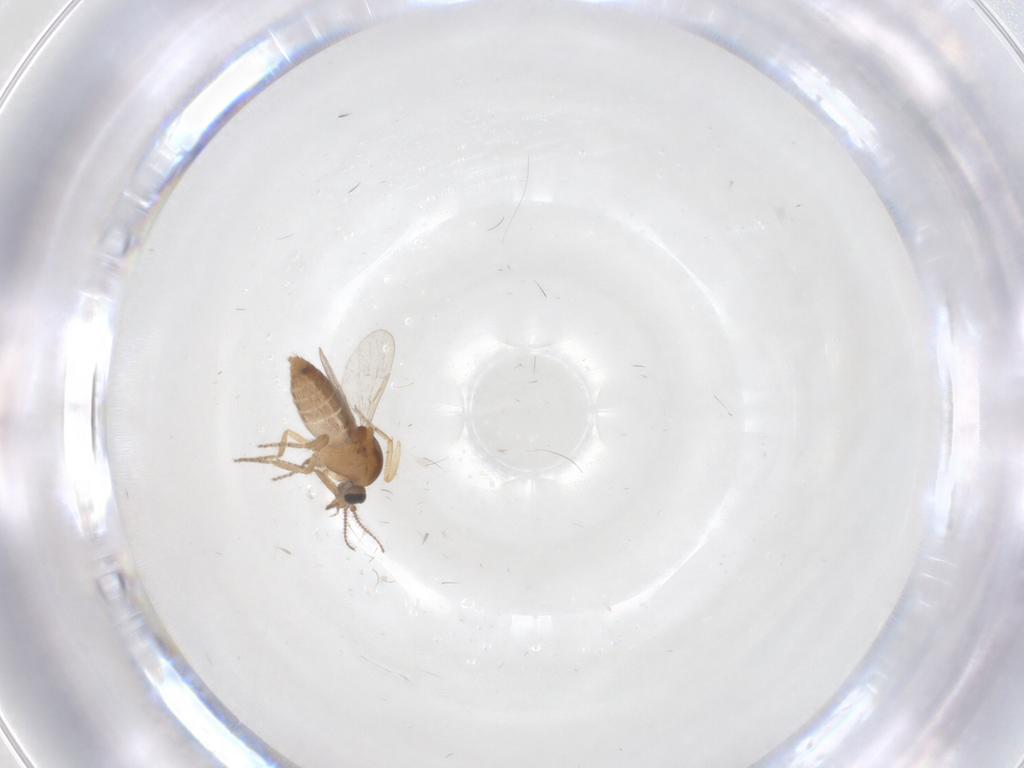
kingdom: Animalia
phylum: Arthropoda
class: Insecta
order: Diptera
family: Ceratopogonidae
